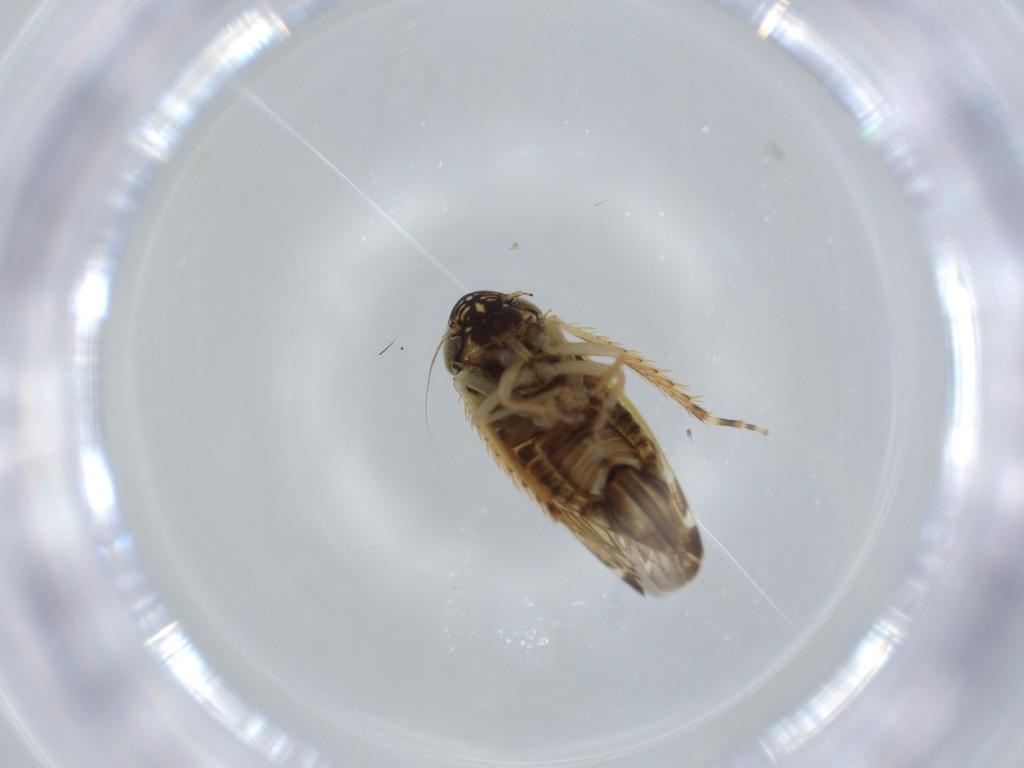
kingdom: Animalia
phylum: Arthropoda
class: Insecta
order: Hemiptera
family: Cicadellidae
